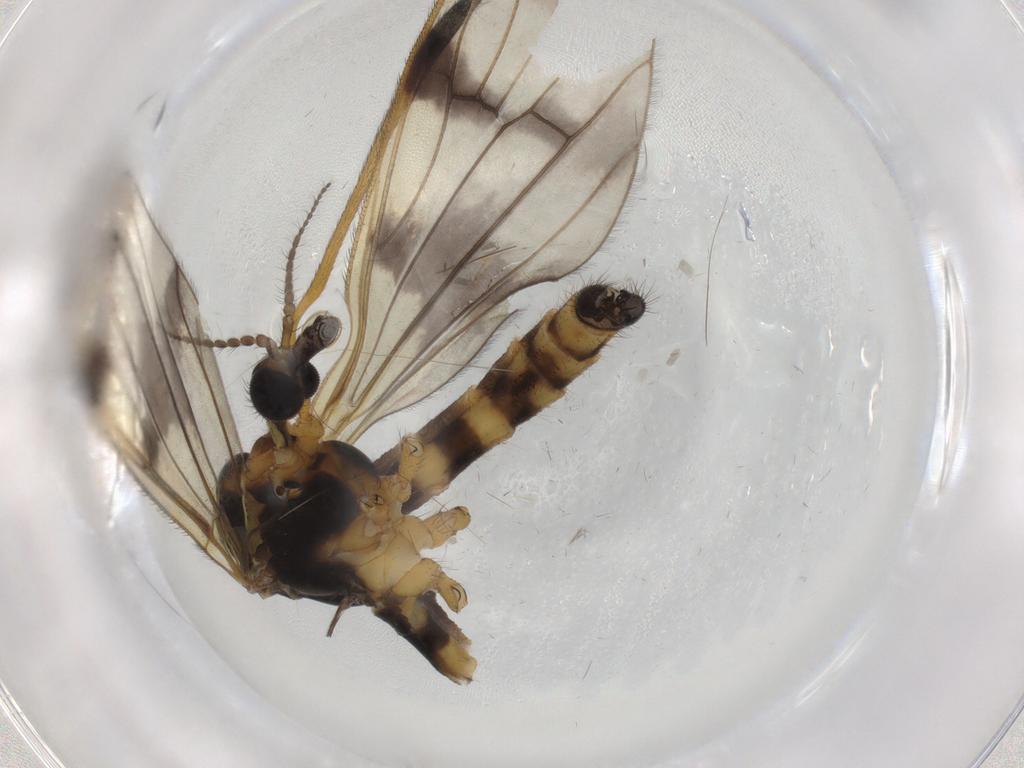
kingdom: Animalia
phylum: Arthropoda
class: Insecta
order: Diptera
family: Limoniidae
